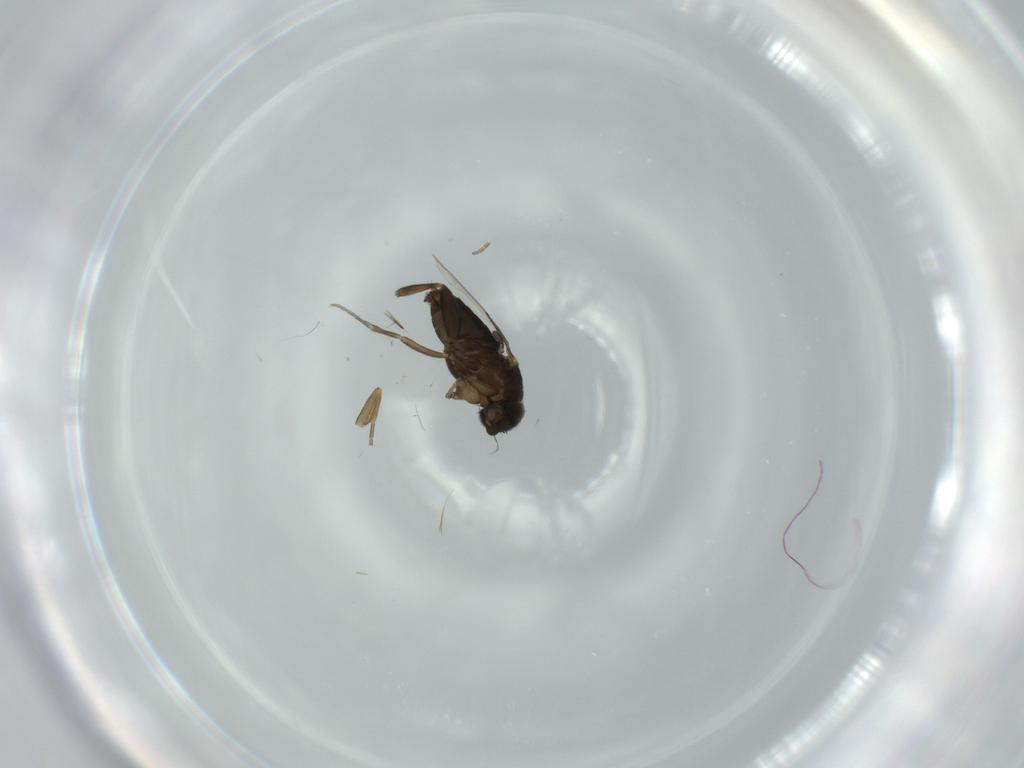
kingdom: Animalia
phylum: Arthropoda
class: Insecta
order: Diptera
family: Phoridae
